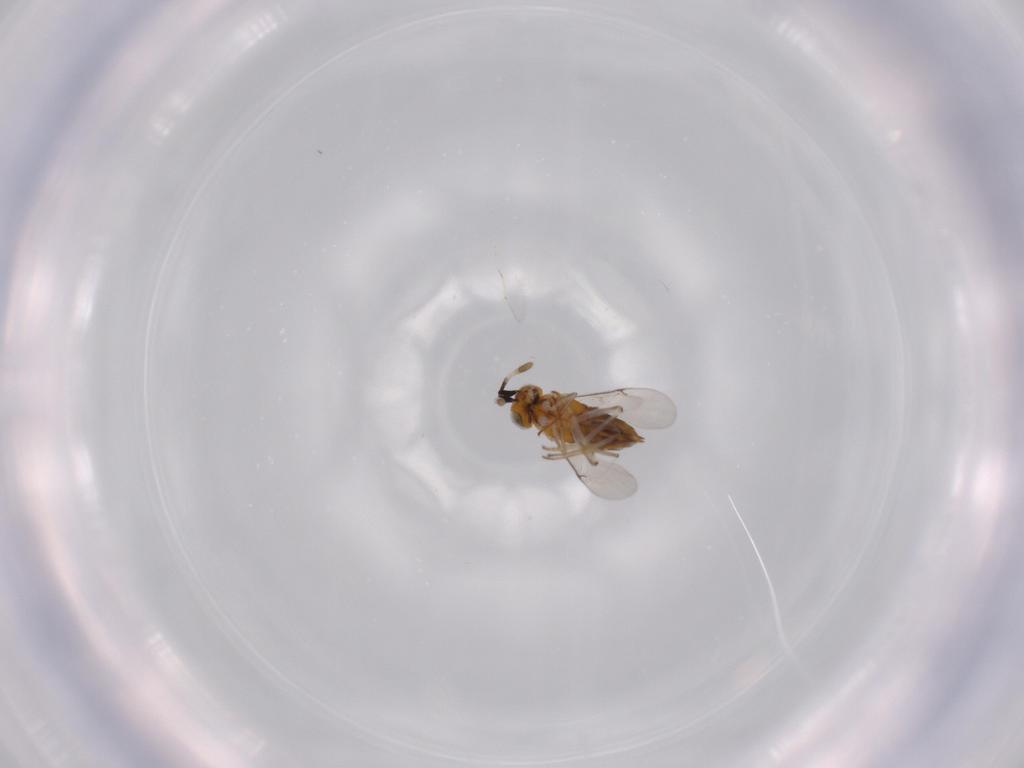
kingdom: Animalia
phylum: Arthropoda
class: Insecta
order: Hymenoptera
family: Encyrtidae
